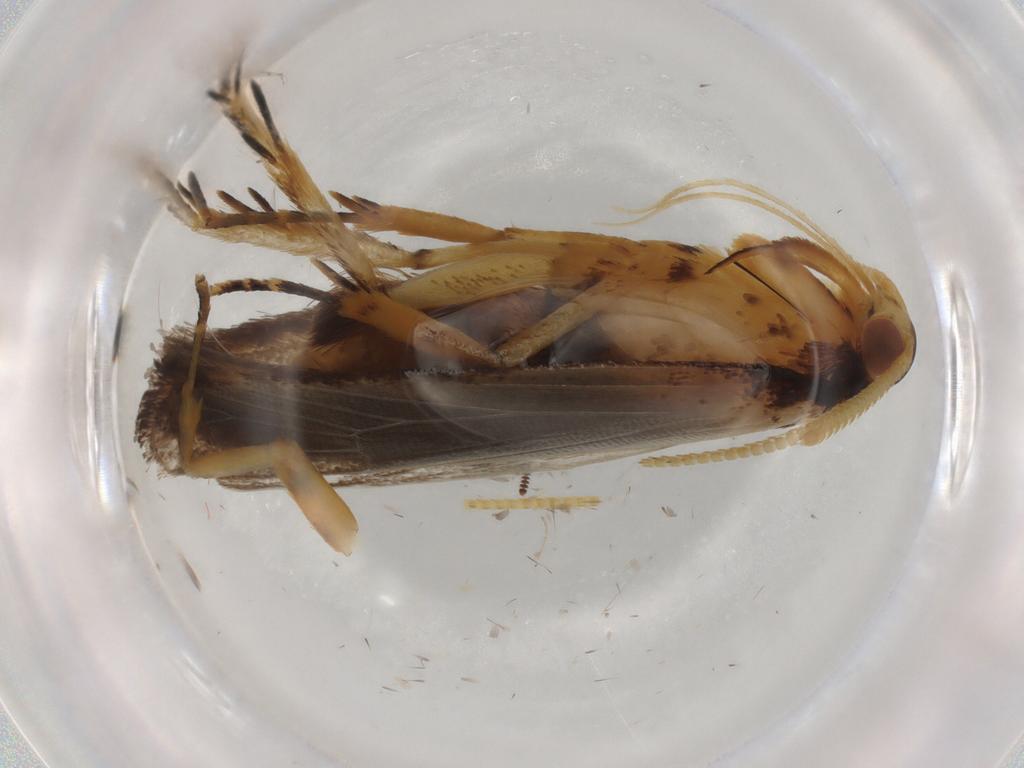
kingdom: Animalia
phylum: Arthropoda
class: Insecta
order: Lepidoptera
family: Lecithoceridae
